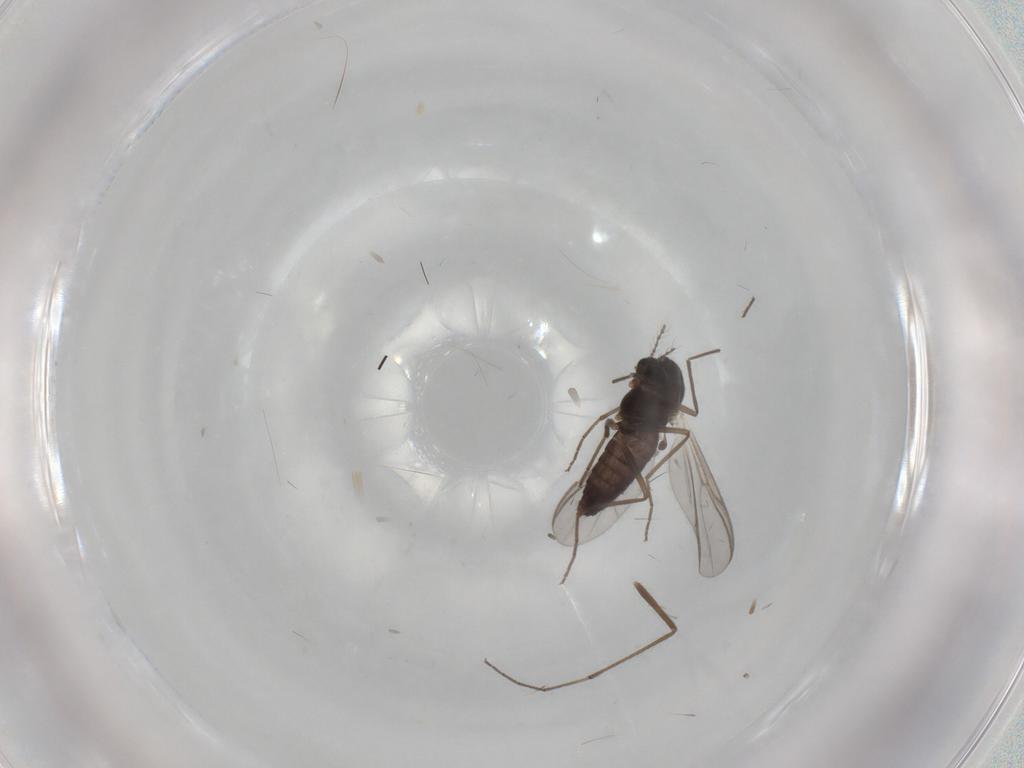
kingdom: Animalia
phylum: Arthropoda
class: Insecta
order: Diptera
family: Chironomidae
